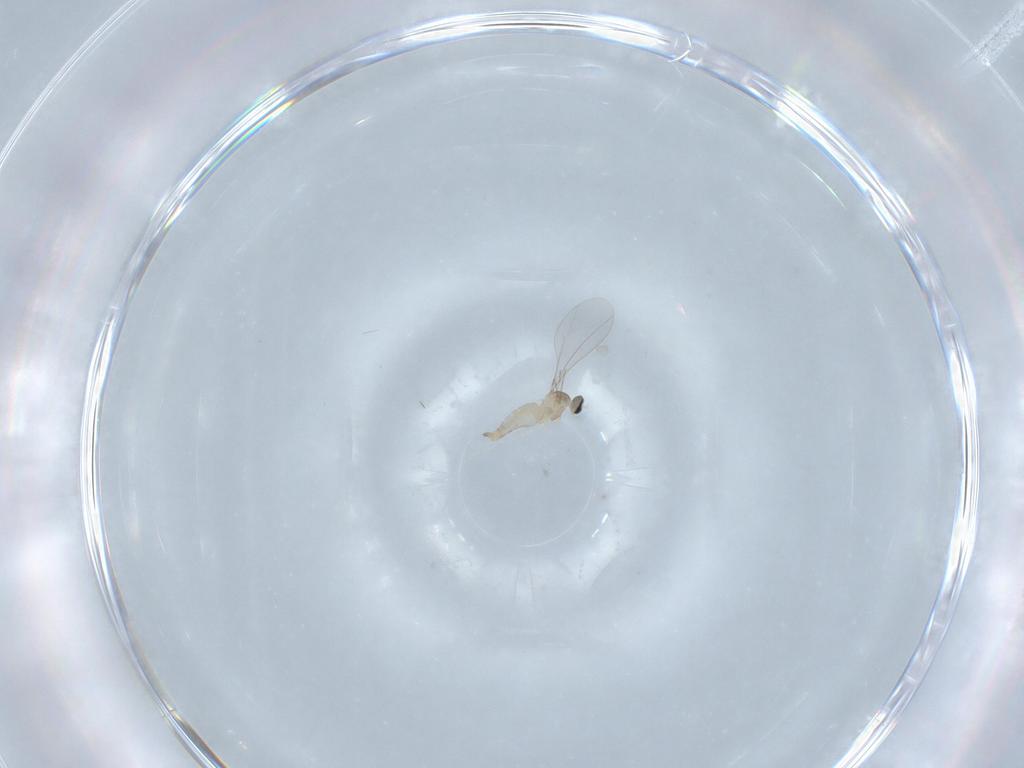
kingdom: Animalia
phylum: Arthropoda
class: Insecta
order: Diptera
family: Cecidomyiidae
